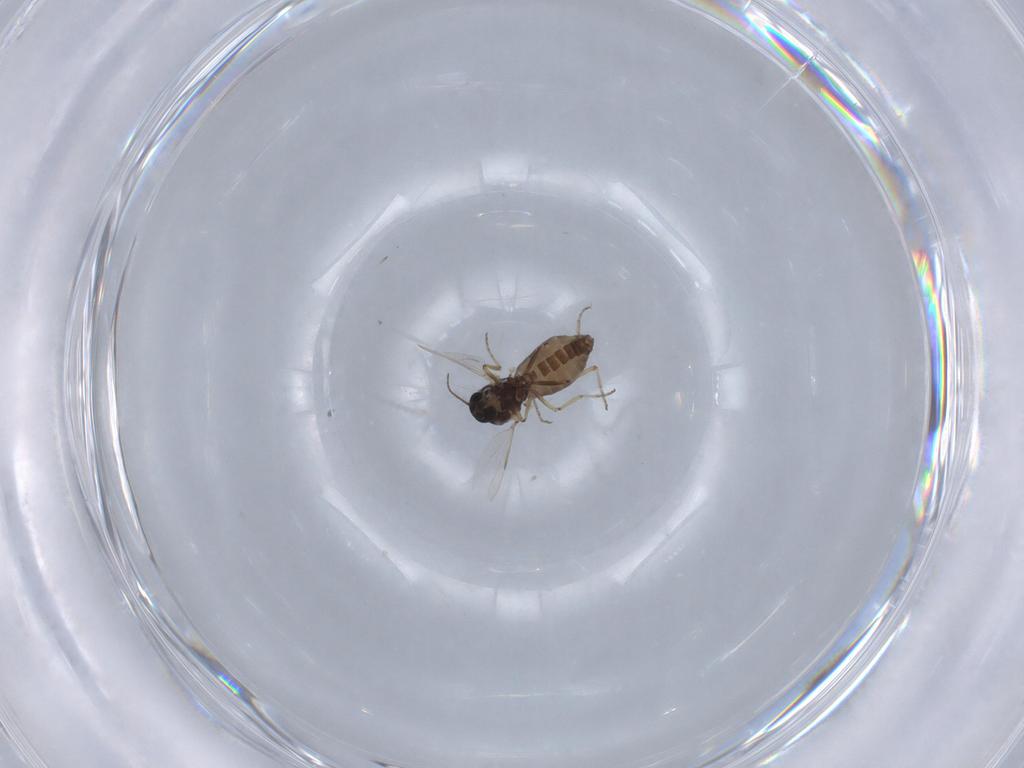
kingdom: Animalia
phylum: Arthropoda
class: Insecta
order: Diptera
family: Ceratopogonidae
